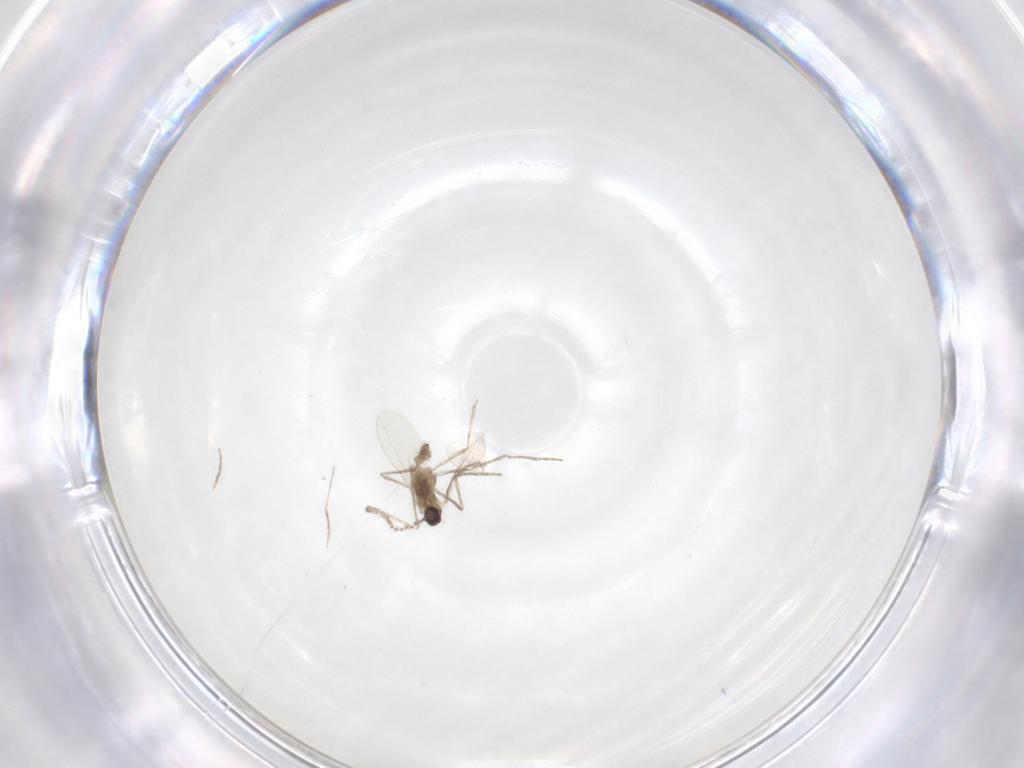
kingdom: Animalia
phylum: Arthropoda
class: Insecta
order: Diptera
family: Cecidomyiidae
